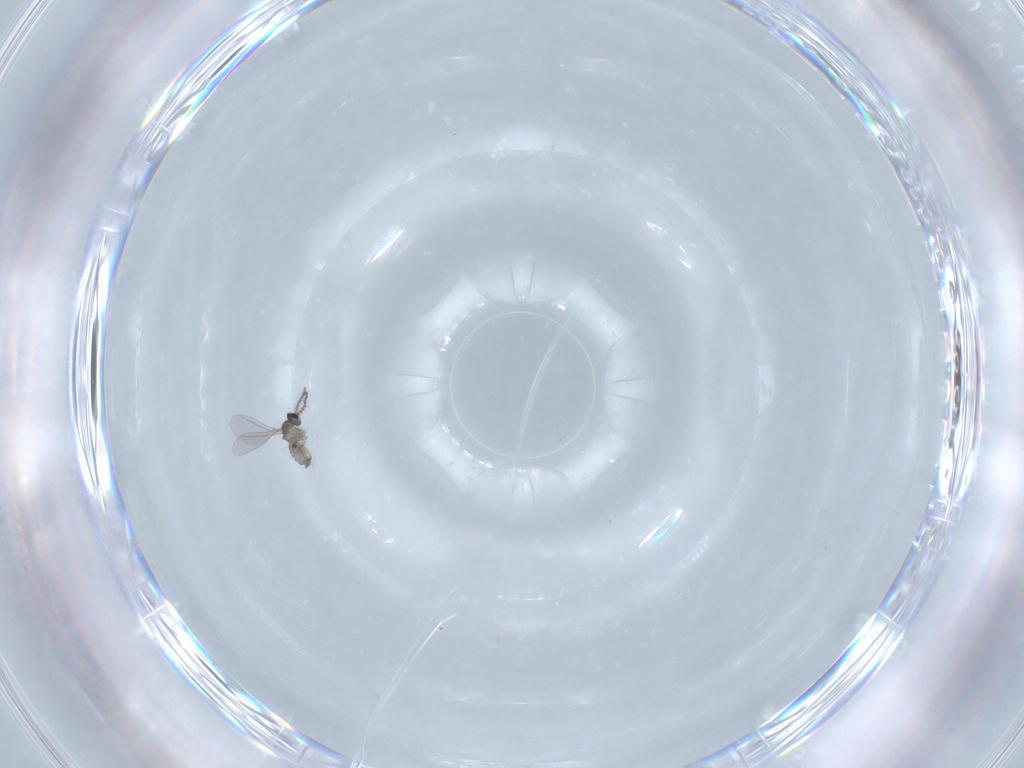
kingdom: Animalia
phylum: Arthropoda
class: Insecta
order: Diptera
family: Cecidomyiidae
